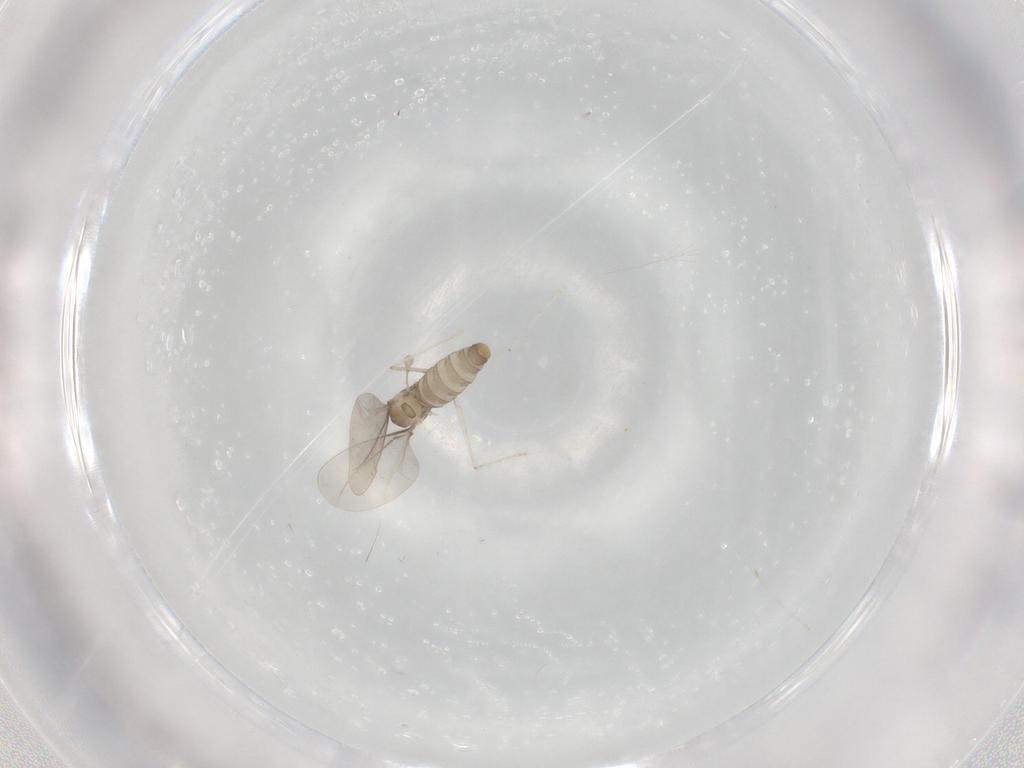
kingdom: Animalia
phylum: Arthropoda
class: Insecta
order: Diptera
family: Cecidomyiidae
